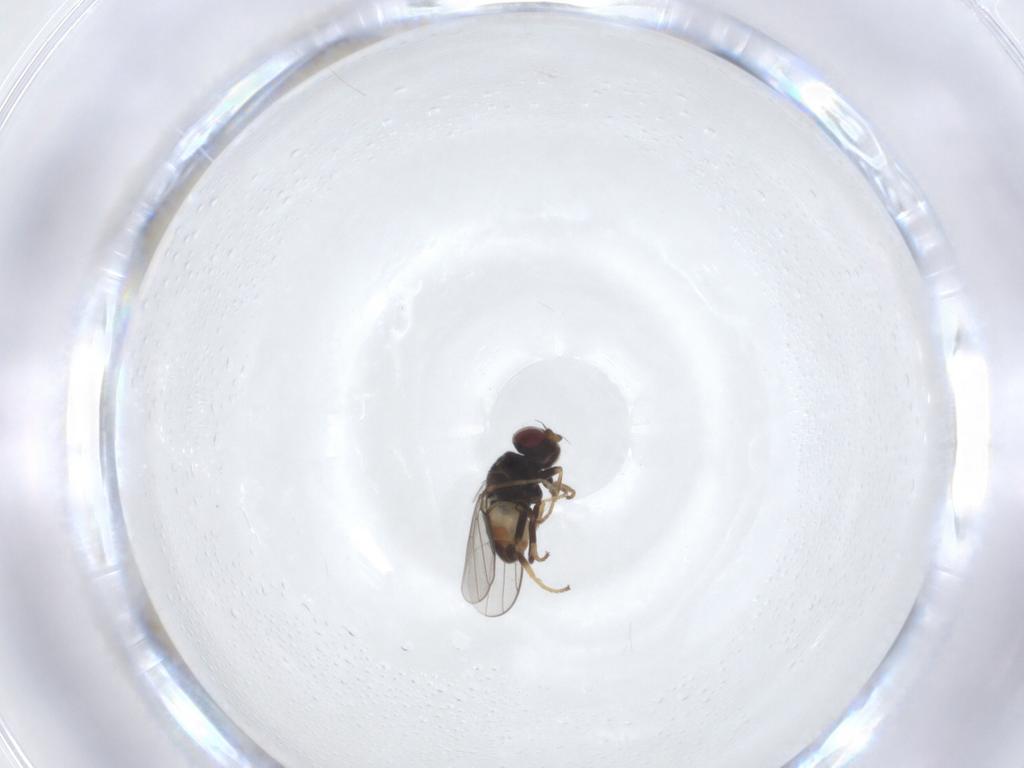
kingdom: Animalia
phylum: Arthropoda
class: Insecta
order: Diptera
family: Chloropidae
